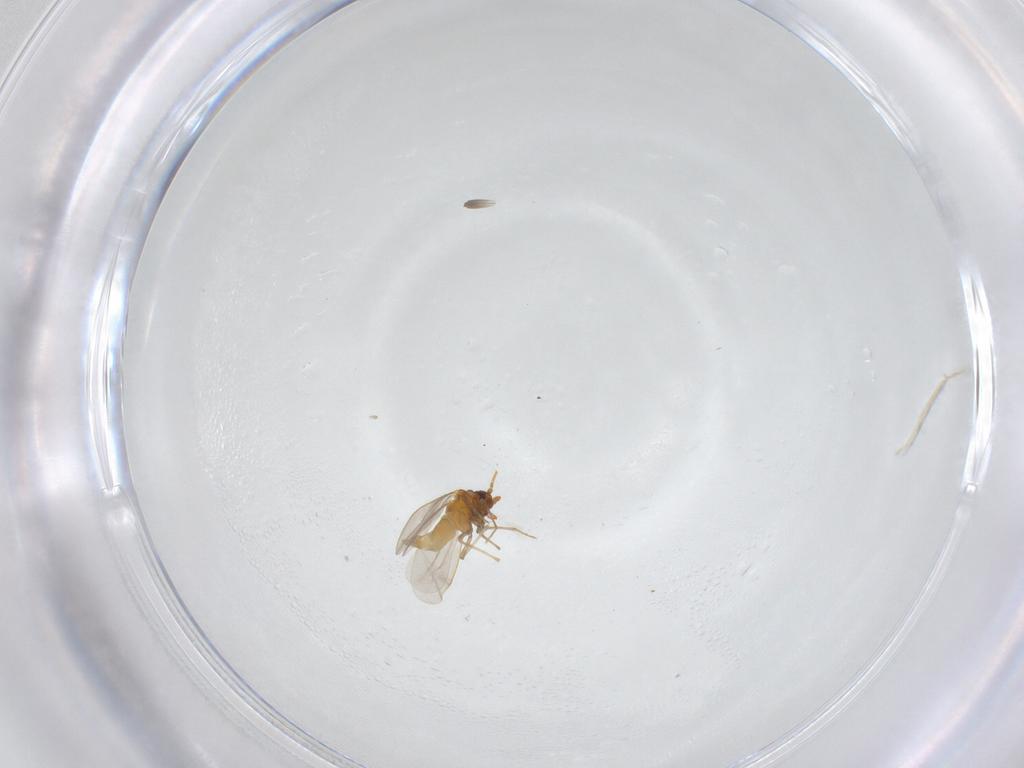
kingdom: Animalia
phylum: Arthropoda
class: Insecta
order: Hemiptera
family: Aleyrodidae
